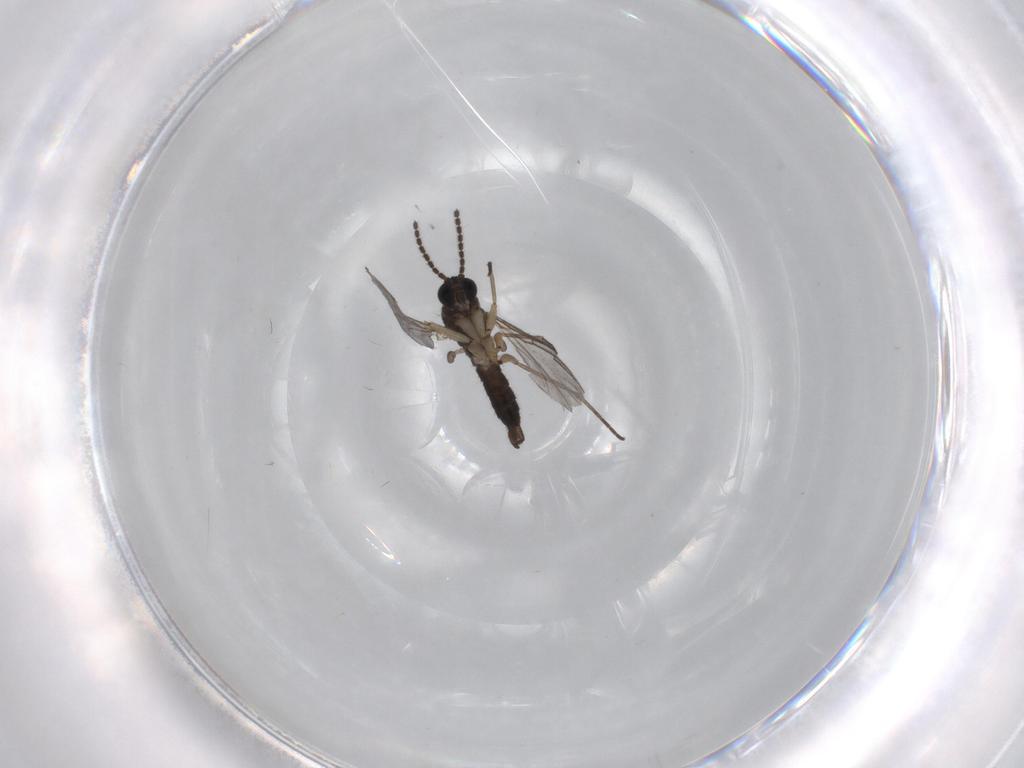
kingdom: Animalia
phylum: Arthropoda
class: Insecta
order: Diptera
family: Sciaridae
